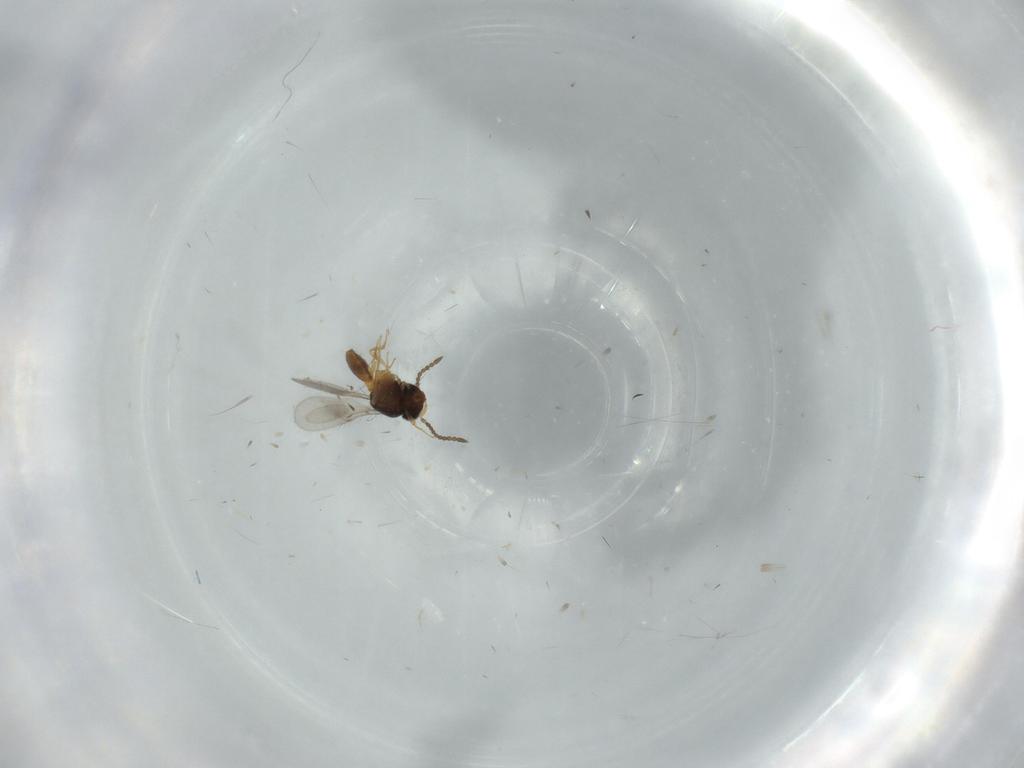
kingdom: Animalia
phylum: Arthropoda
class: Insecta
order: Hymenoptera
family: Scelionidae
